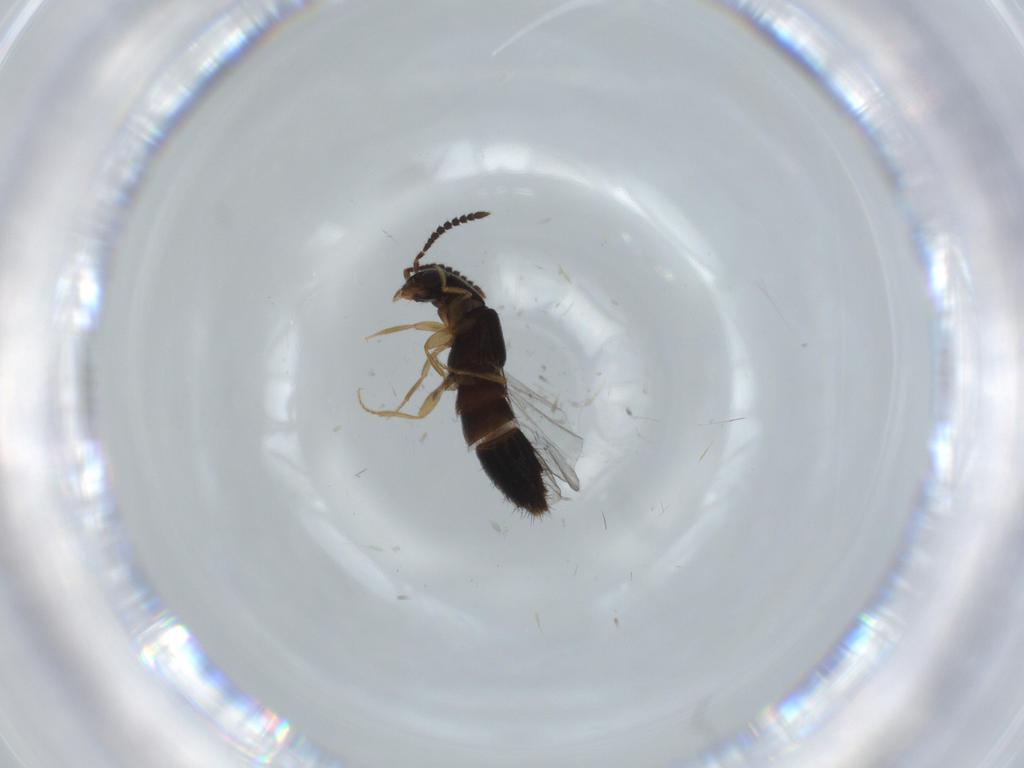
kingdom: Animalia
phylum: Arthropoda
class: Insecta
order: Coleoptera
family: Staphylinidae
